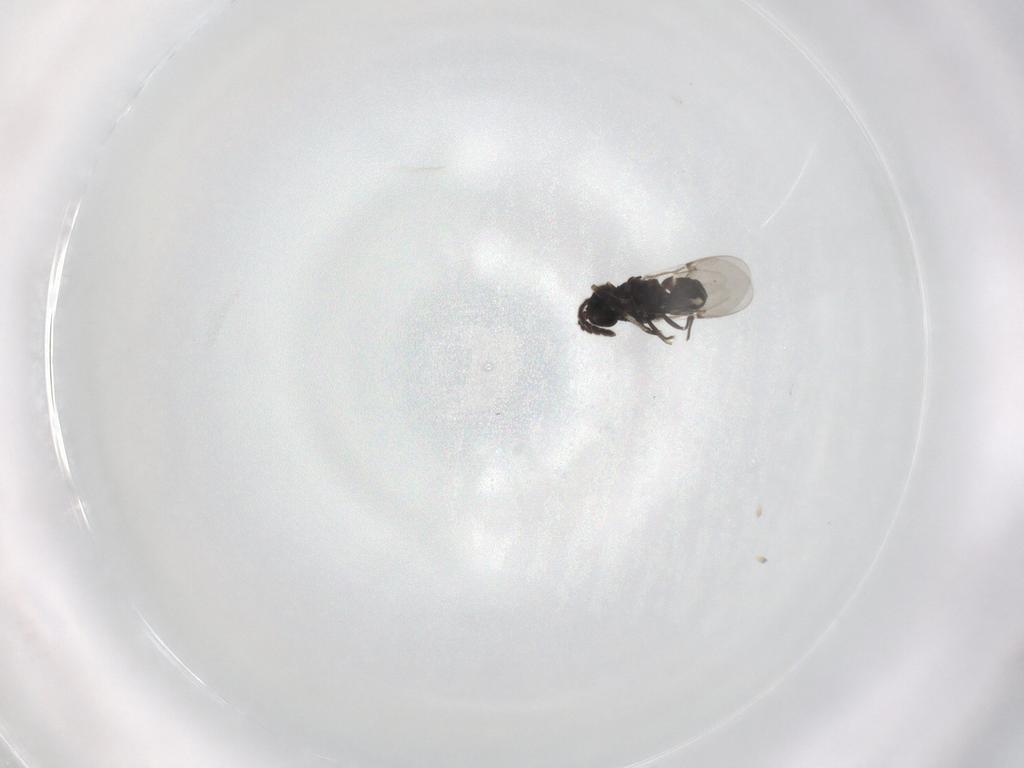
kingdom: Animalia
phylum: Arthropoda
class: Insecta
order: Hymenoptera
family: Encyrtidae
